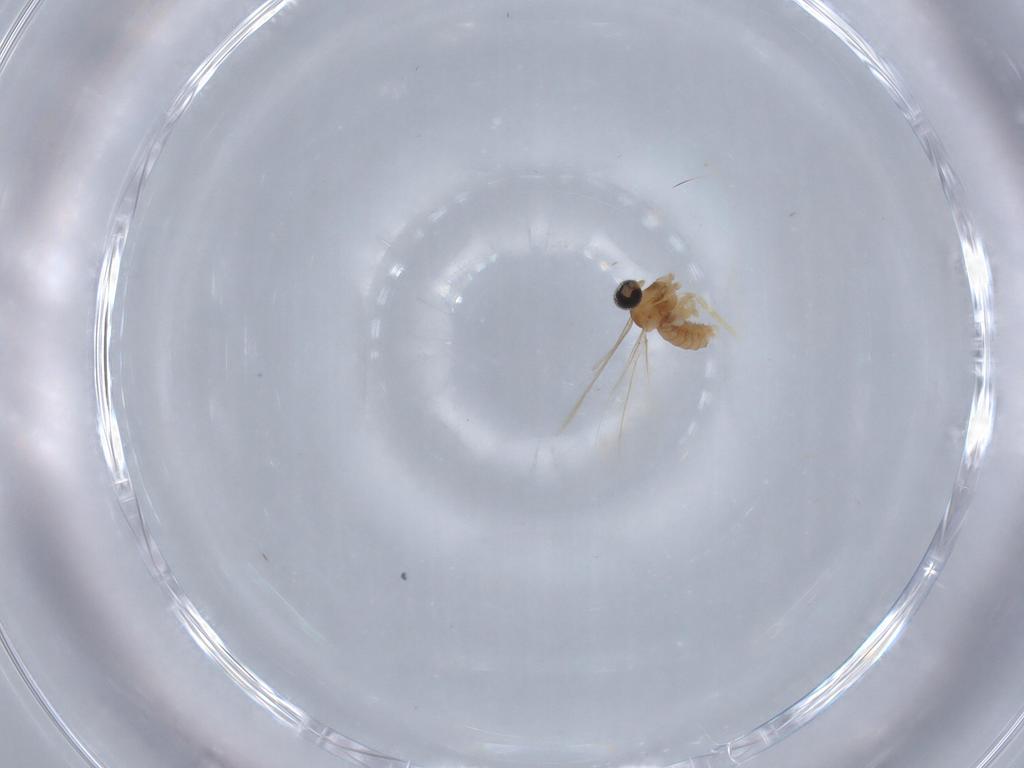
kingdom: Animalia
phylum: Arthropoda
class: Insecta
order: Diptera
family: Cecidomyiidae
